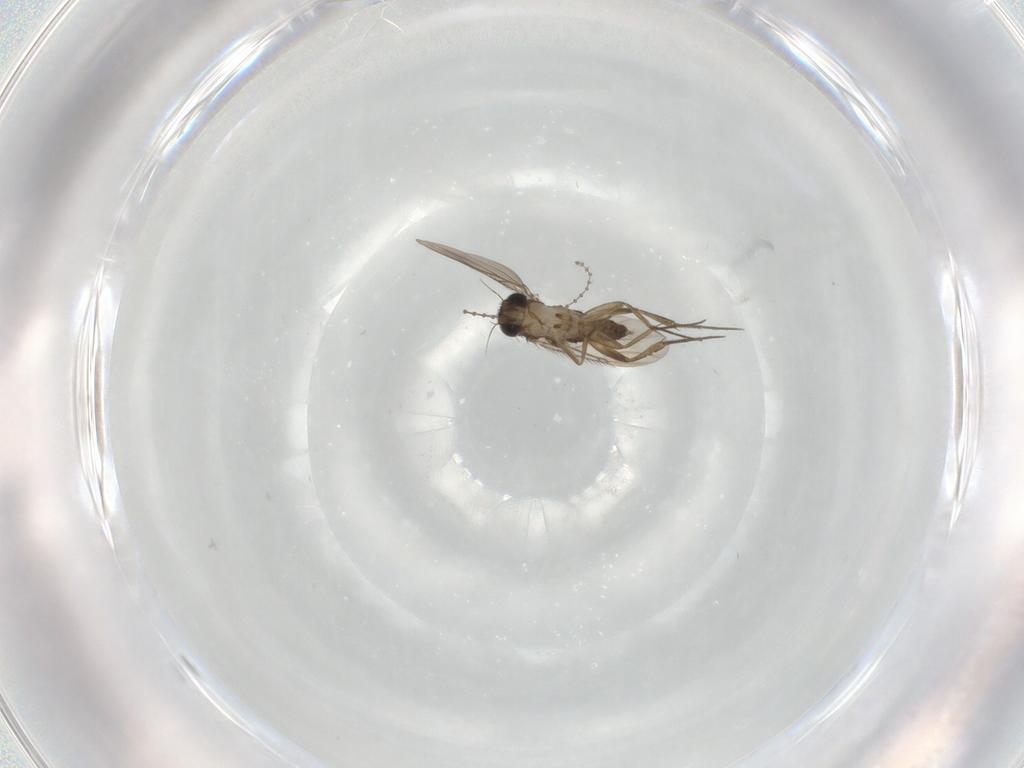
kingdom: Animalia
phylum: Arthropoda
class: Insecta
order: Diptera
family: Phoridae
